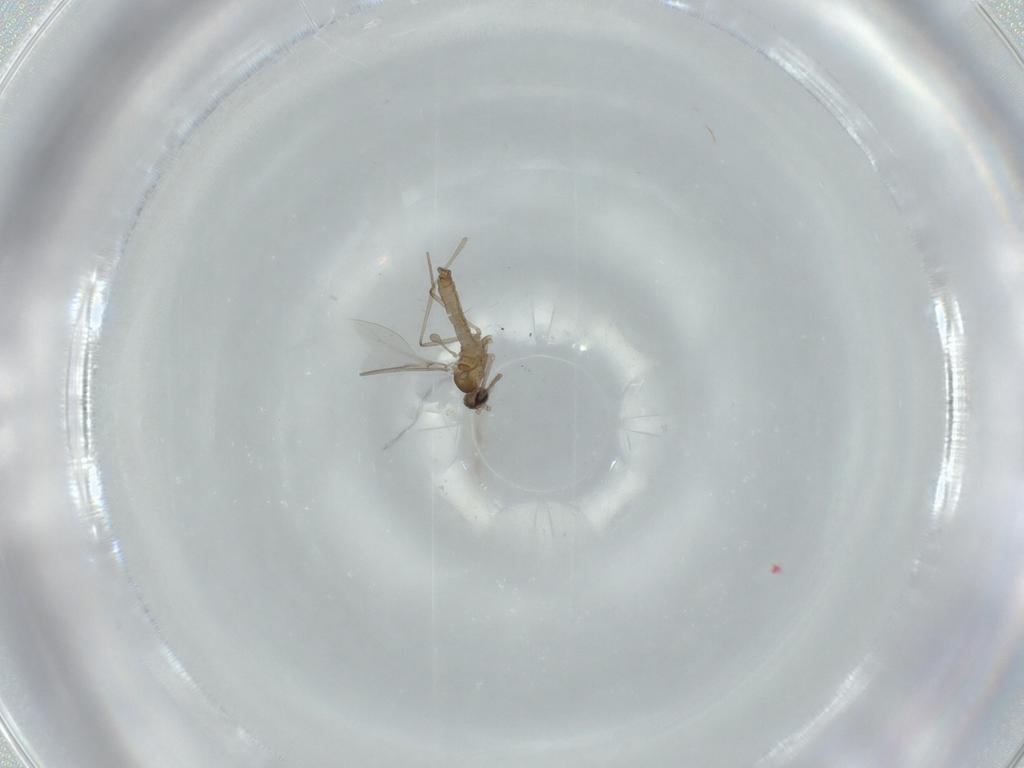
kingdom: Animalia
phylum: Arthropoda
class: Insecta
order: Diptera
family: Cecidomyiidae
